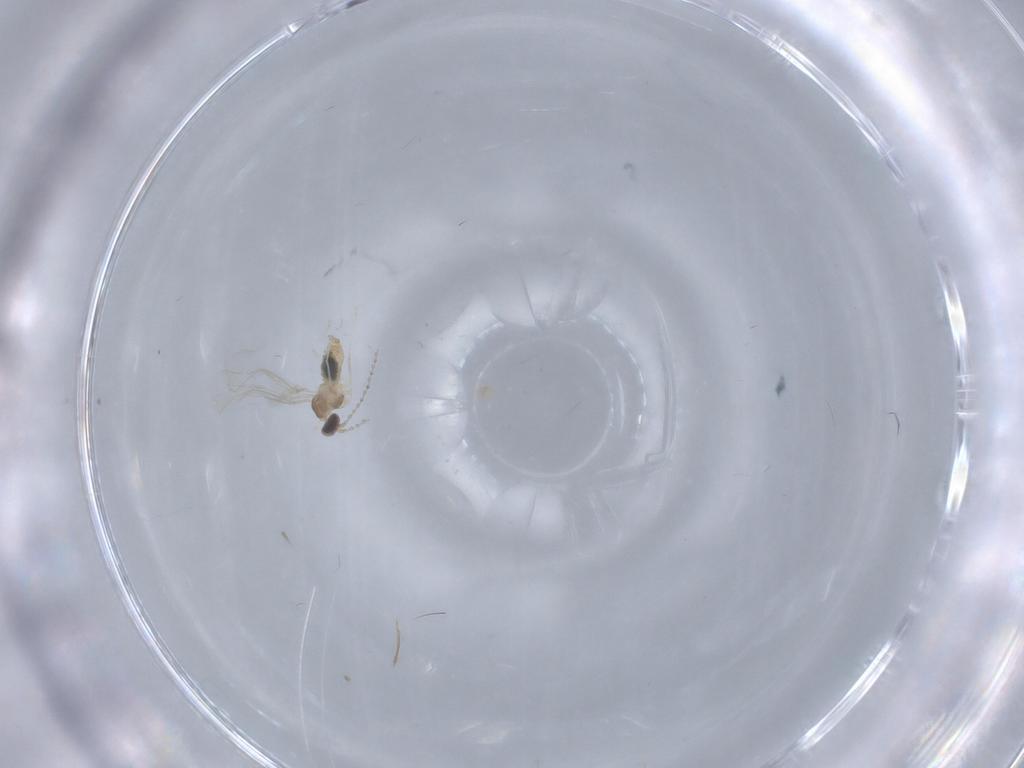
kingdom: Animalia
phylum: Arthropoda
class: Insecta
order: Diptera
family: Cecidomyiidae
